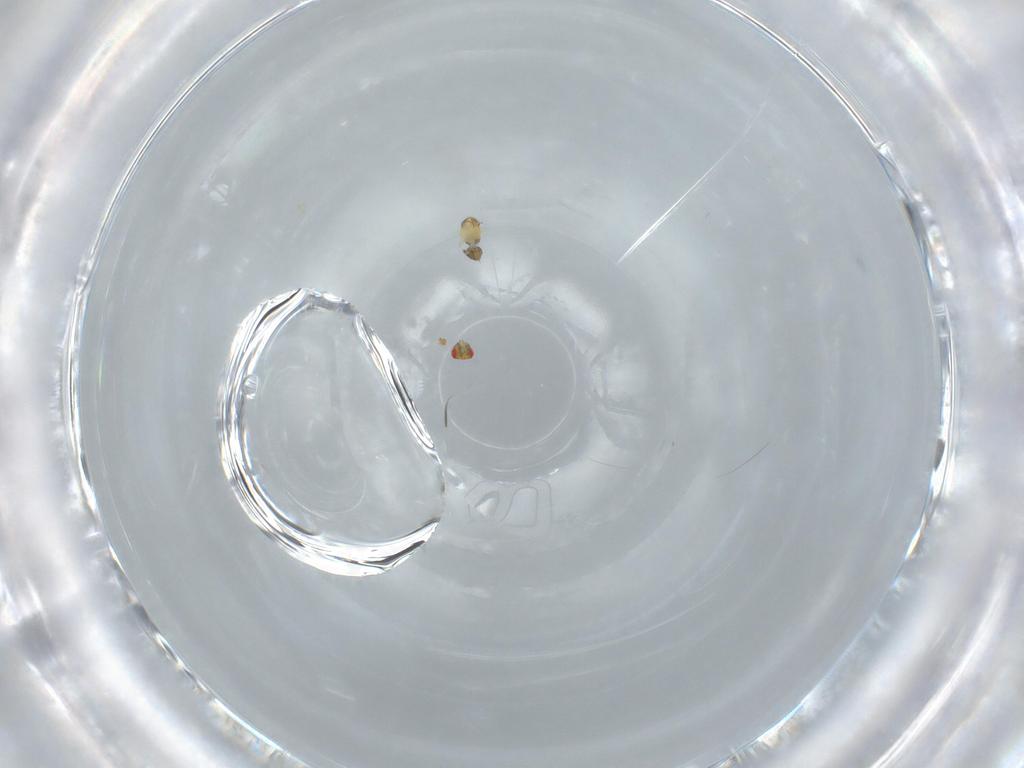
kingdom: Animalia
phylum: Arthropoda
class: Insecta
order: Hymenoptera
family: Trichogrammatidae
